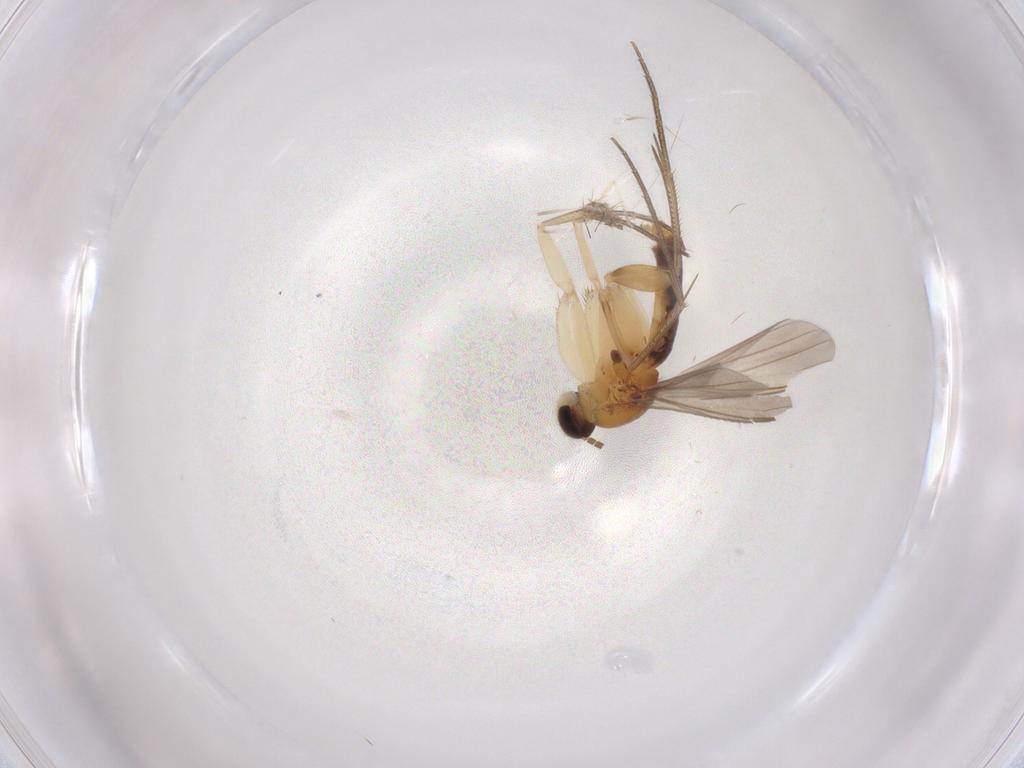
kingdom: Animalia
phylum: Arthropoda
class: Insecta
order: Diptera
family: Mycetophilidae
